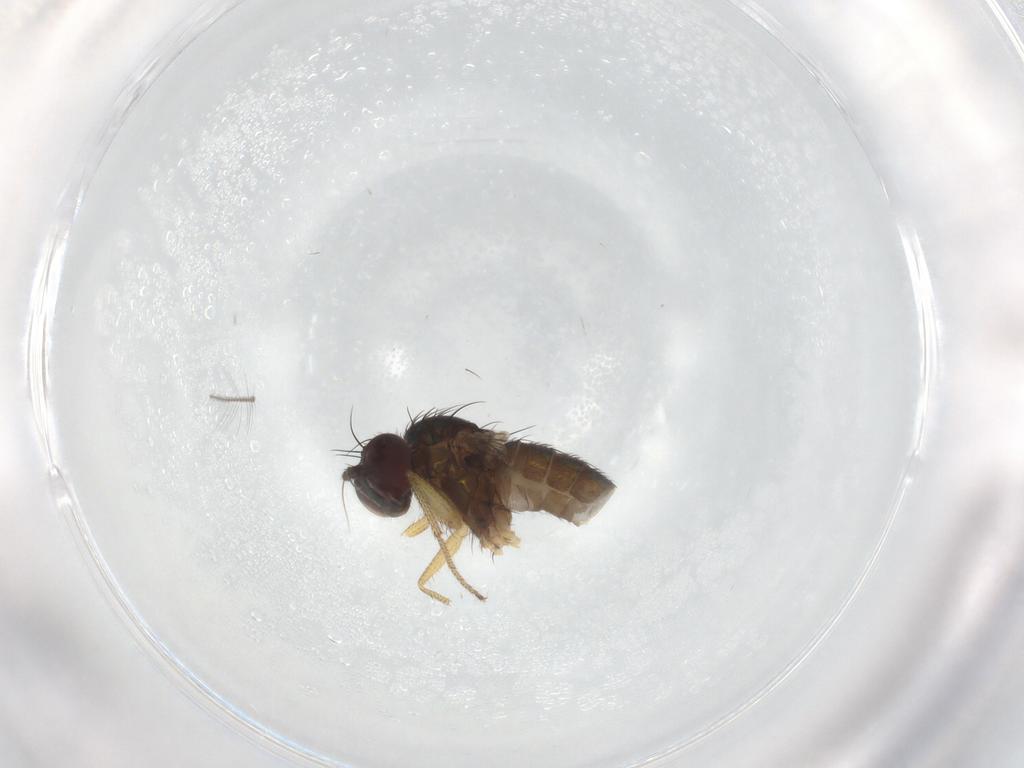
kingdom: Animalia
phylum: Arthropoda
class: Insecta
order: Diptera
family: Dolichopodidae
